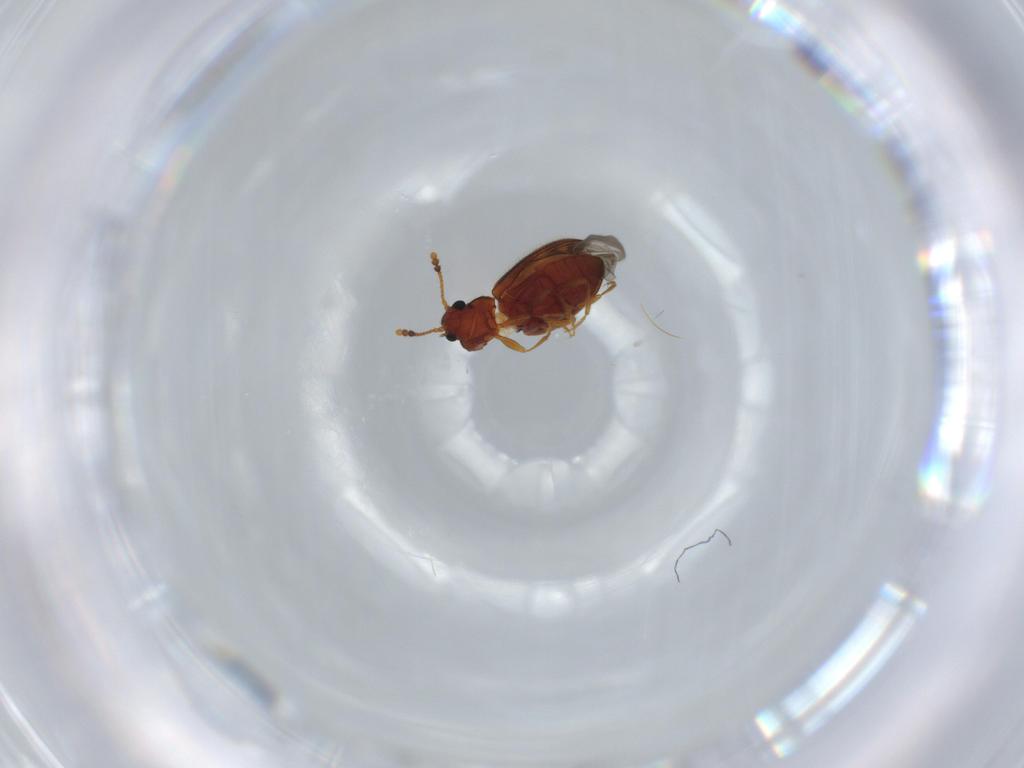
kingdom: Animalia
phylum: Arthropoda
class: Insecta
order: Coleoptera
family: Erotylidae
